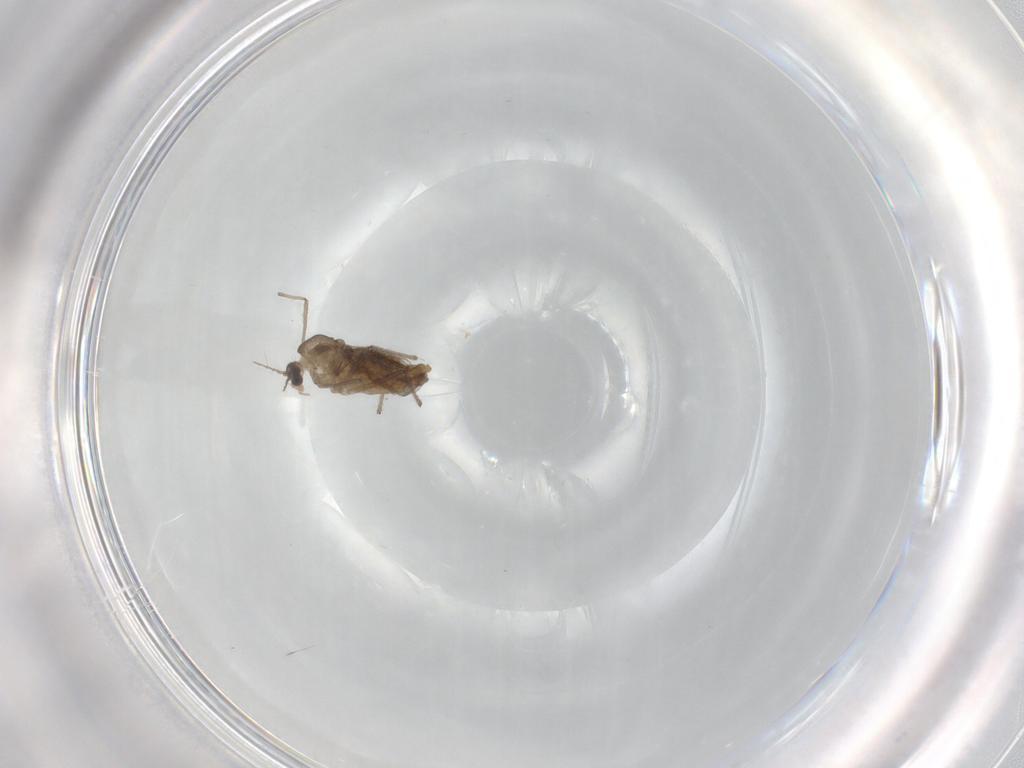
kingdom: Animalia
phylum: Arthropoda
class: Insecta
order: Diptera
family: Chironomidae
